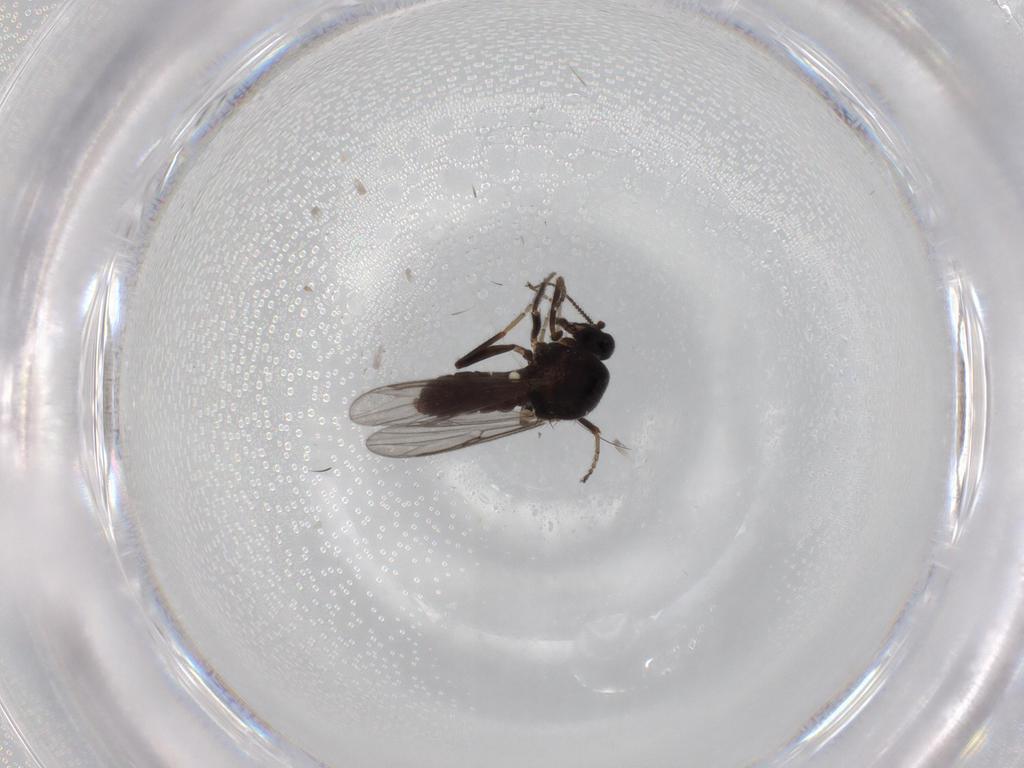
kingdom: Animalia
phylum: Arthropoda
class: Insecta
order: Diptera
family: Ceratopogonidae
